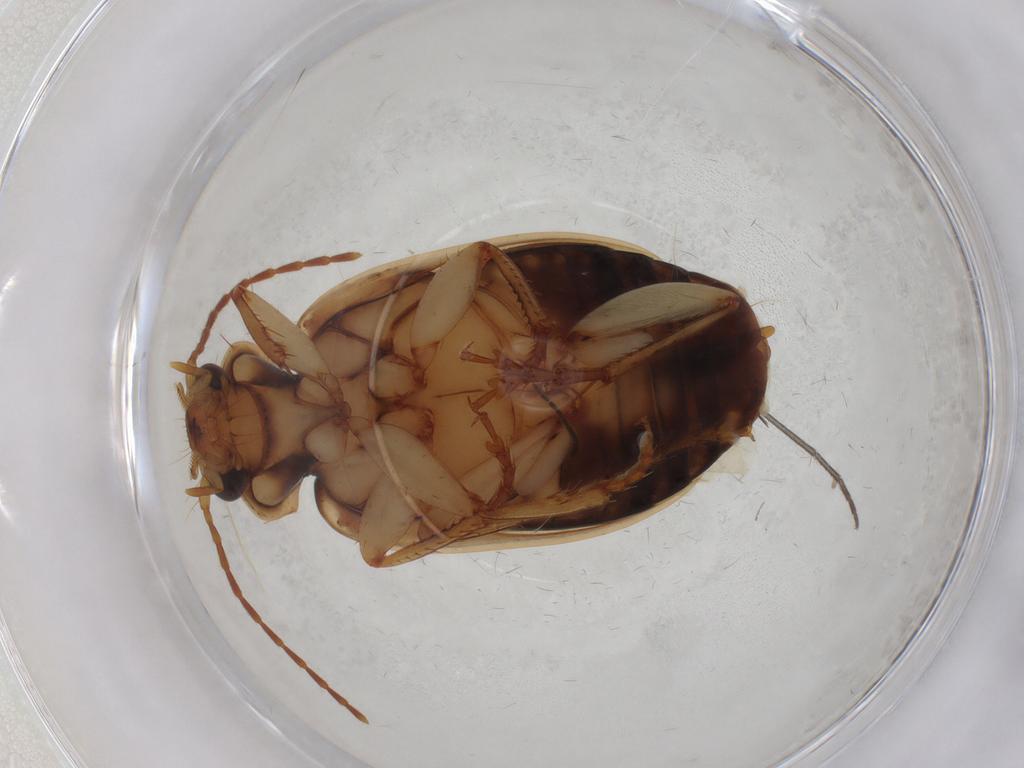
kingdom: Animalia
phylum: Arthropoda
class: Insecta
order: Coleoptera
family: Carabidae
